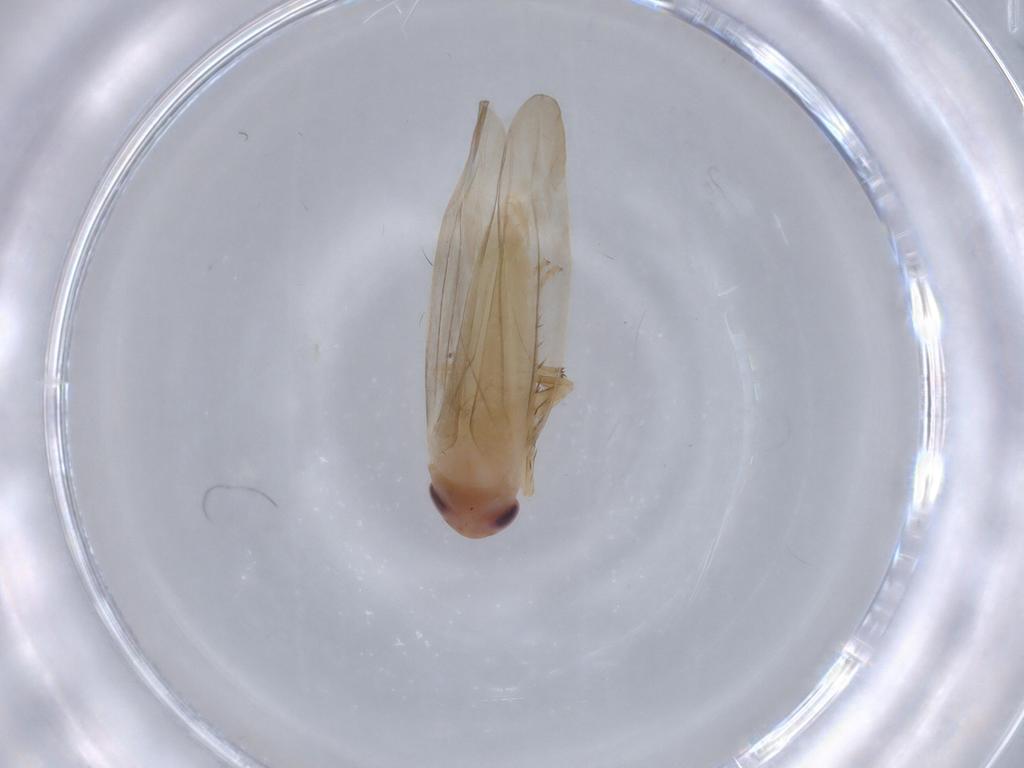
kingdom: Animalia
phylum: Arthropoda
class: Insecta
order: Hemiptera
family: Cicadellidae
